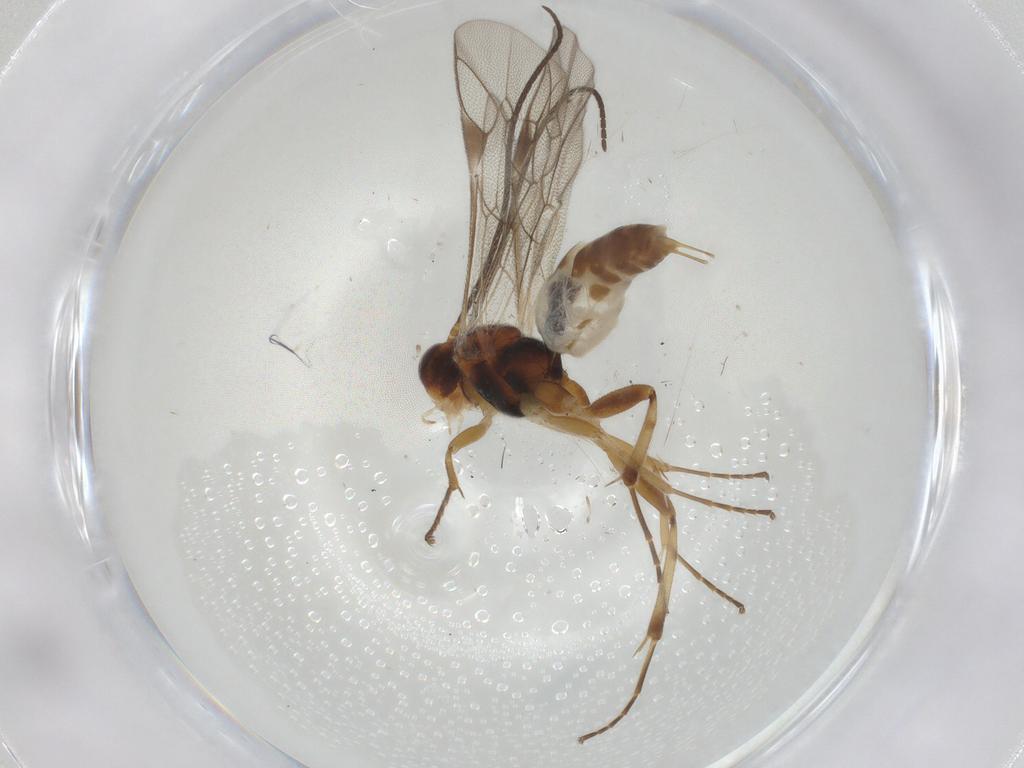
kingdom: Animalia
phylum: Arthropoda
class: Insecta
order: Hymenoptera
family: Ichneumonidae
